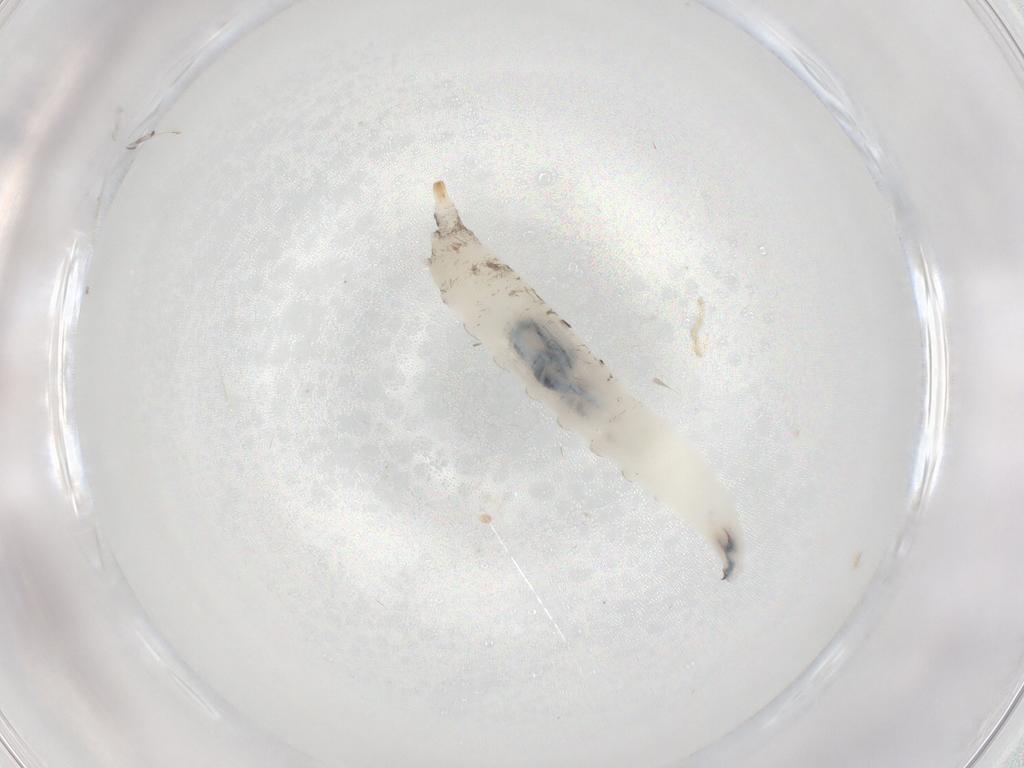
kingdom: Animalia
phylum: Arthropoda
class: Insecta
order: Diptera
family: Drosophilidae
